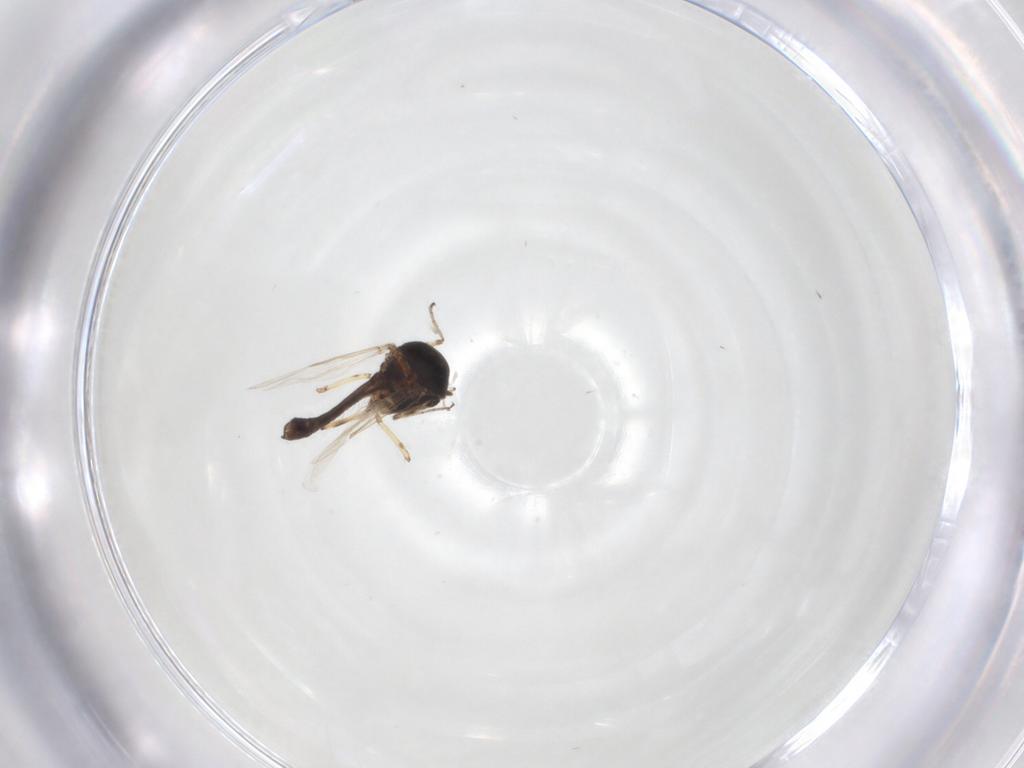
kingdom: Animalia
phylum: Arthropoda
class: Insecta
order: Diptera
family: Ceratopogonidae
